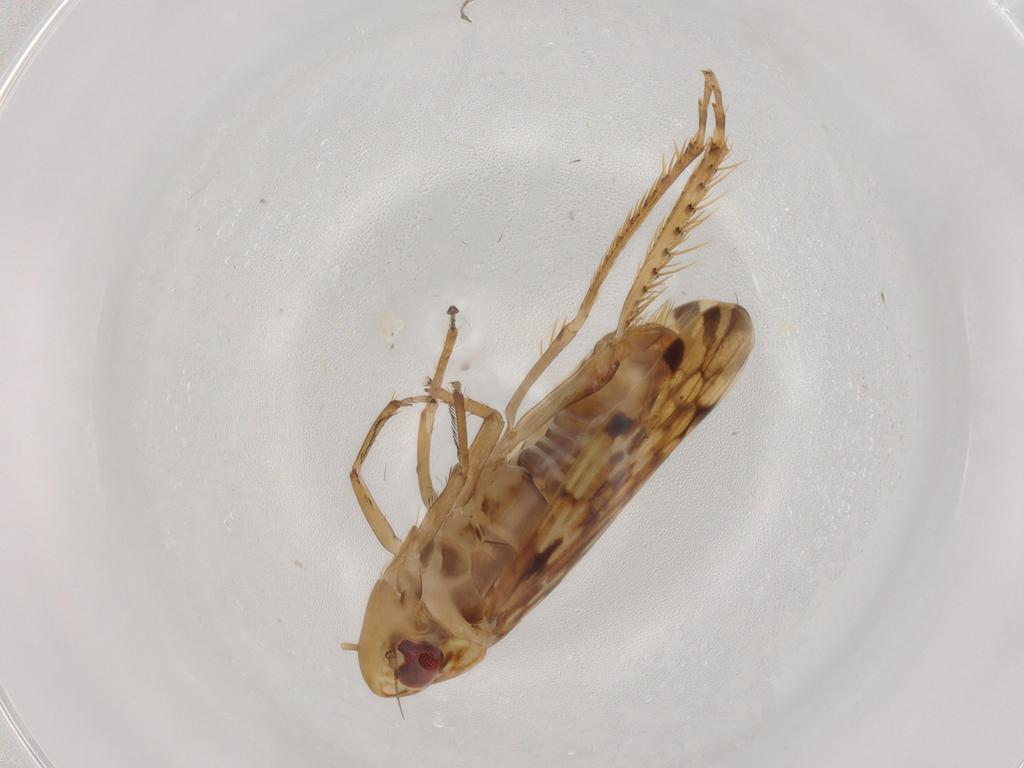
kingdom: Animalia
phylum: Arthropoda
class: Insecta
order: Hemiptera
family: Cicadellidae
